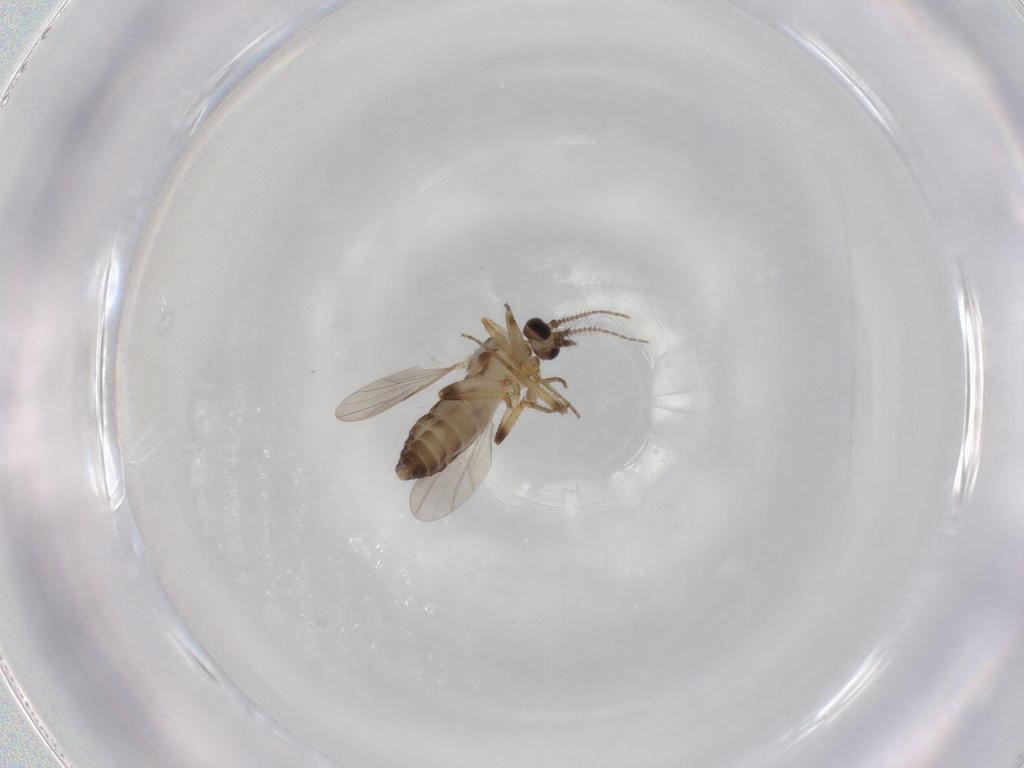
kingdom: Animalia
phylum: Arthropoda
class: Insecta
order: Diptera
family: Ceratopogonidae
